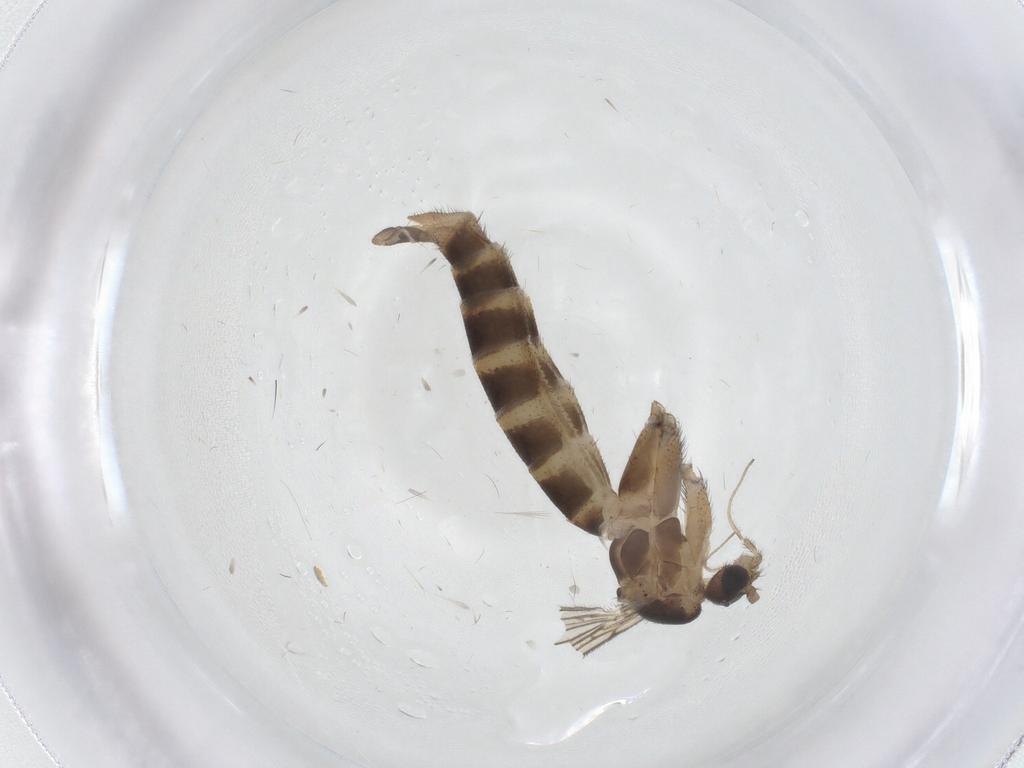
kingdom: Animalia
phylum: Arthropoda
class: Insecta
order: Diptera
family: Mycetophilidae
